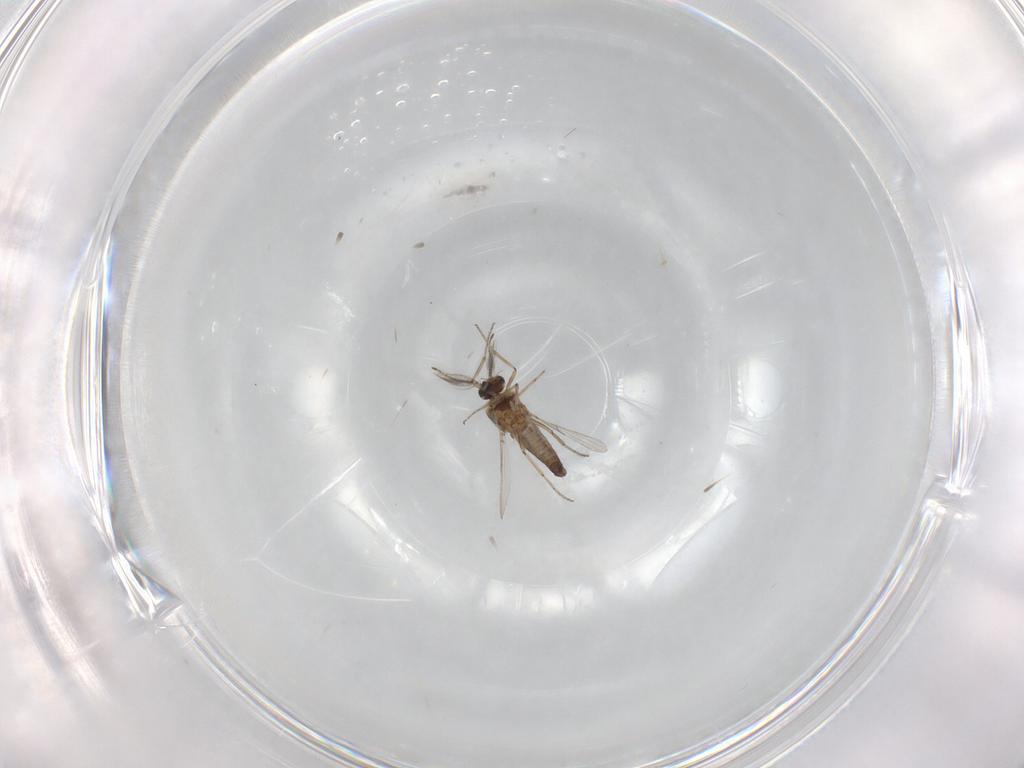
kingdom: Animalia
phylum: Arthropoda
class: Insecta
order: Diptera
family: Ceratopogonidae
